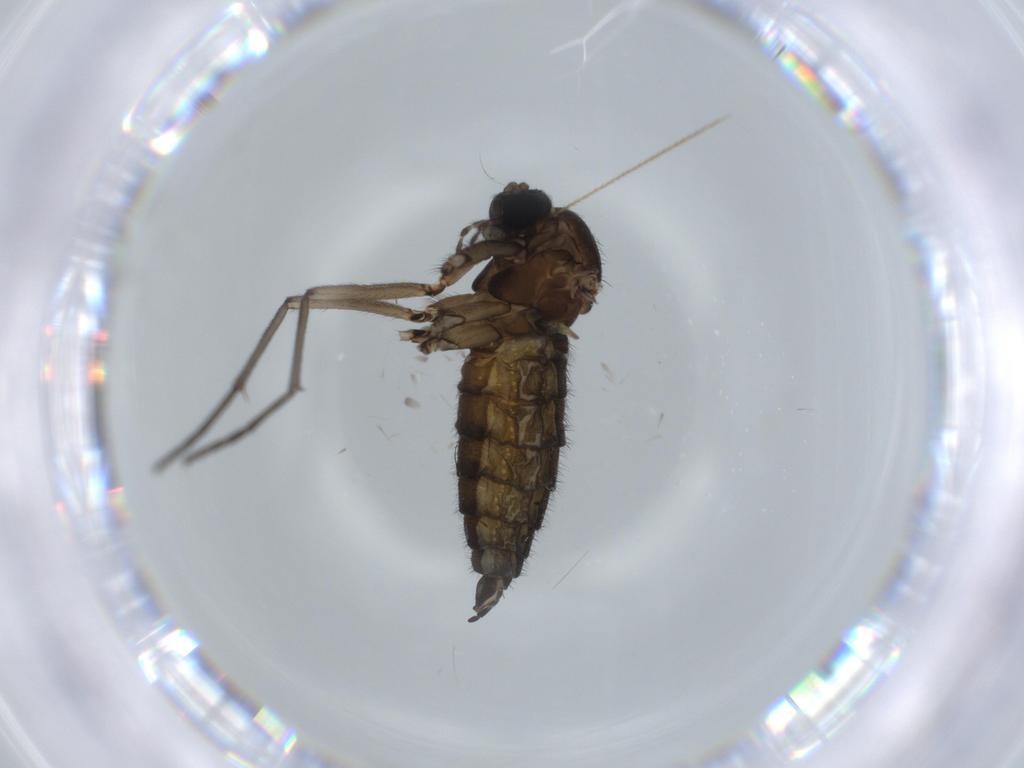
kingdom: Animalia
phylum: Arthropoda
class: Insecta
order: Diptera
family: Sciaridae
